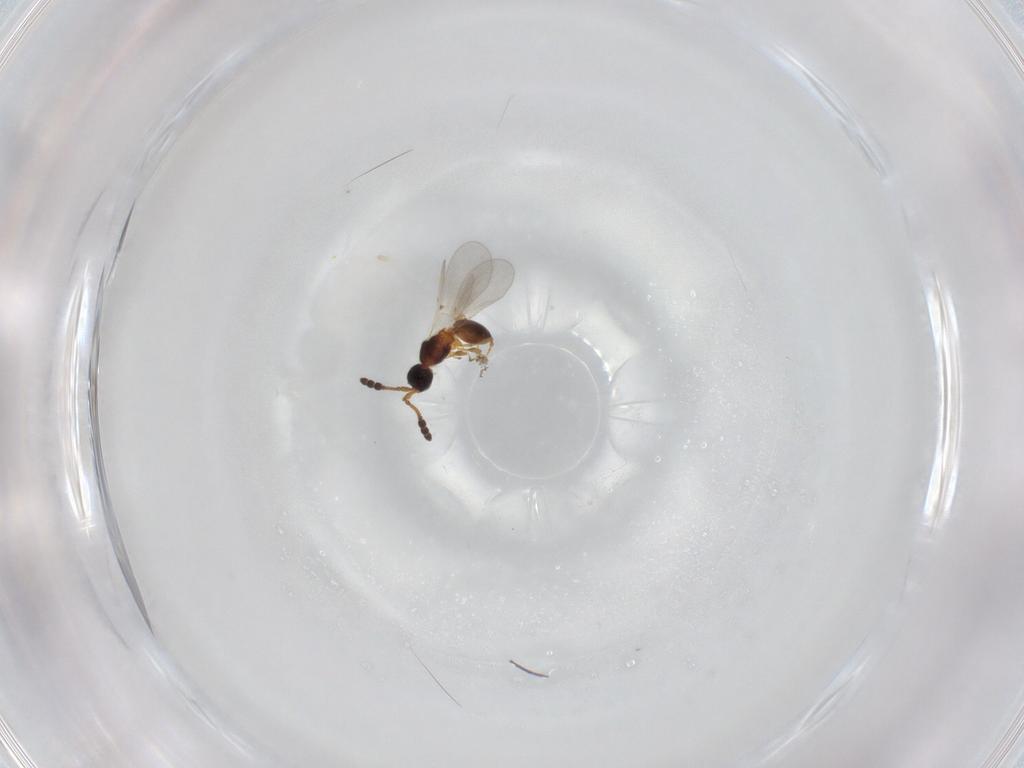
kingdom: Animalia
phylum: Arthropoda
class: Insecta
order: Hymenoptera
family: Diapriidae
